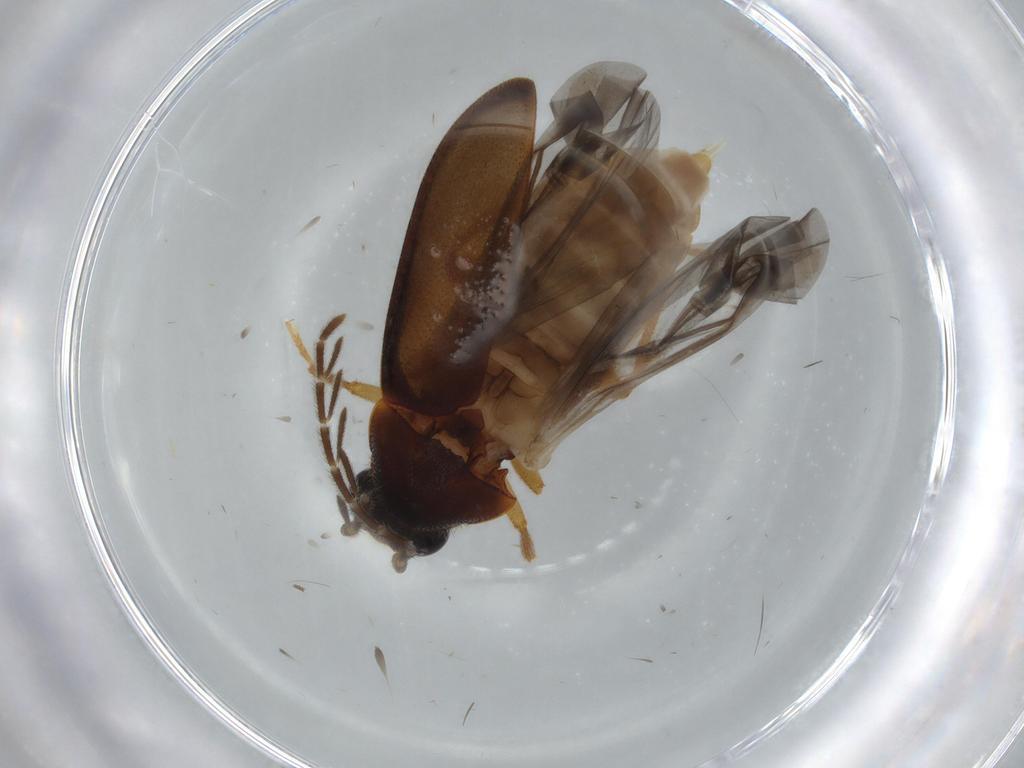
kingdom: Animalia
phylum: Arthropoda
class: Insecta
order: Coleoptera
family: Ptilodactylidae
